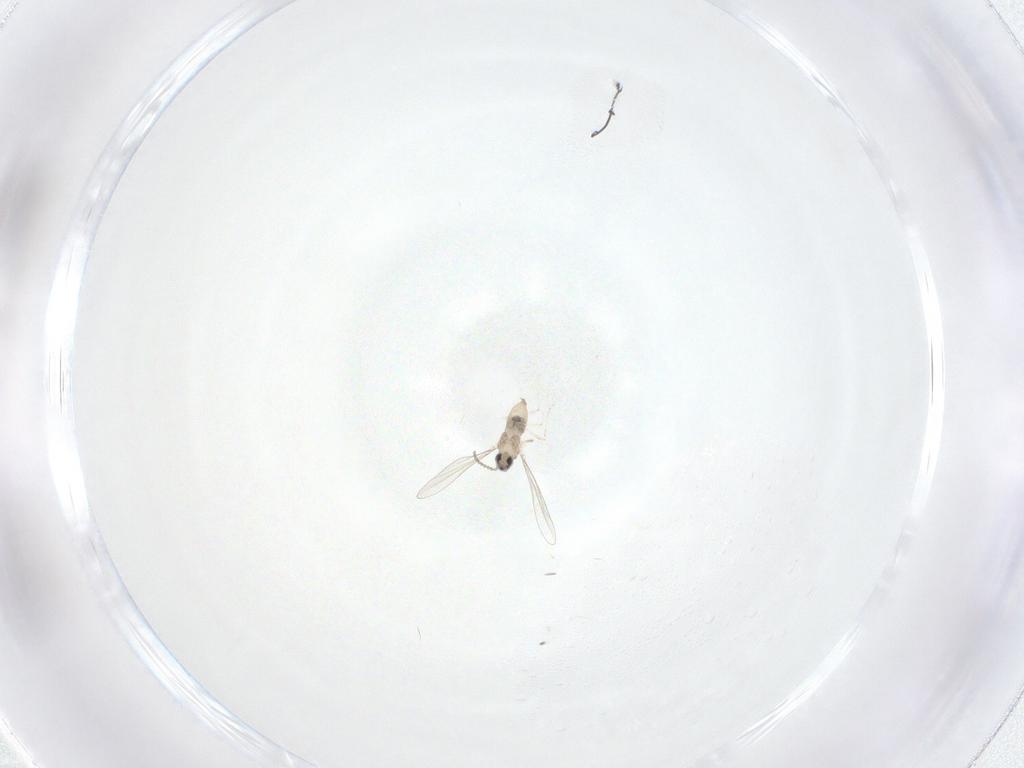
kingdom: Animalia
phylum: Arthropoda
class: Insecta
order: Diptera
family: Cecidomyiidae
